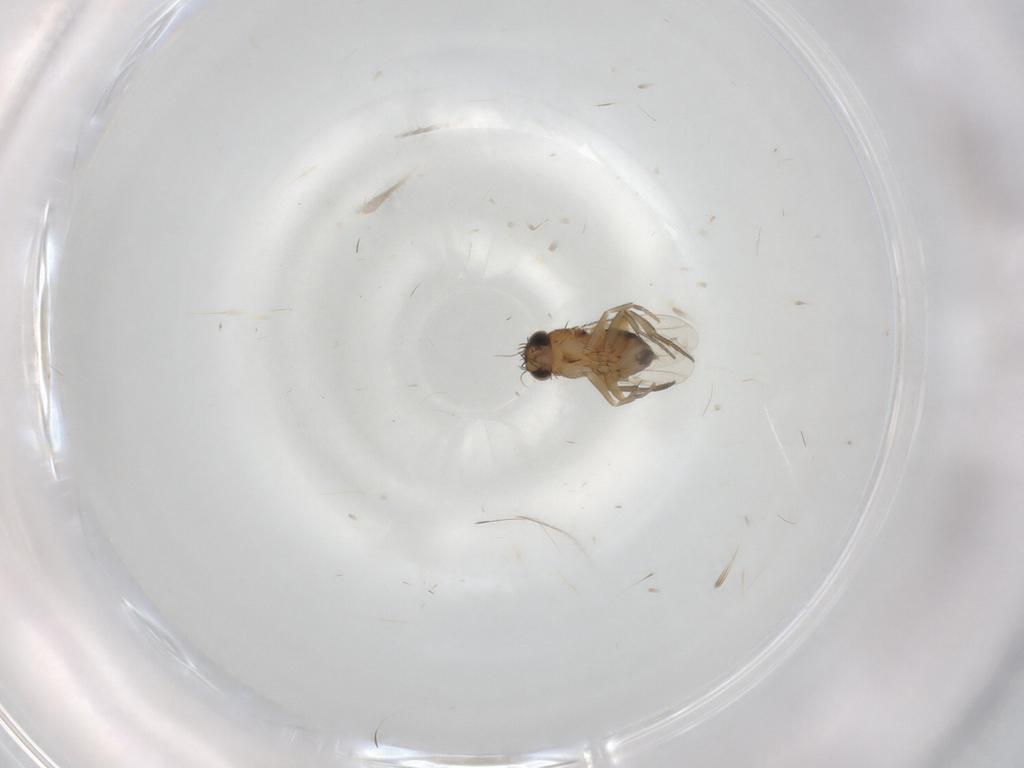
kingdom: Animalia
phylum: Arthropoda
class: Insecta
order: Diptera
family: Phoridae
